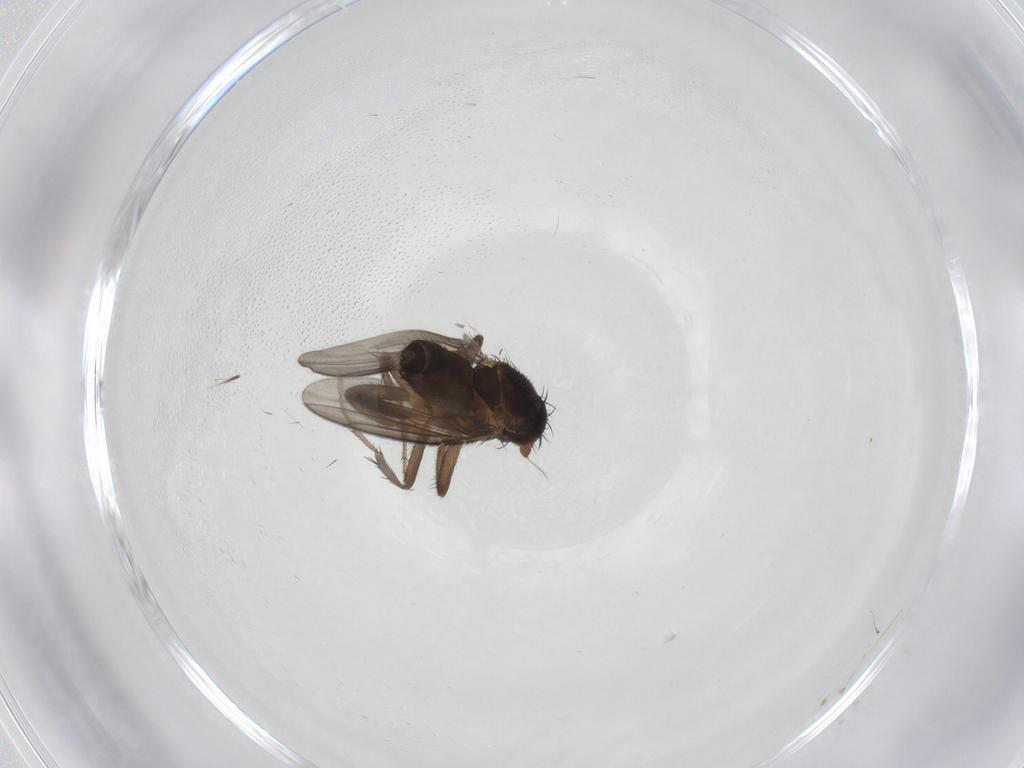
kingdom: Animalia
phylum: Arthropoda
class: Insecta
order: Diptera
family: Sphaeroceridae
